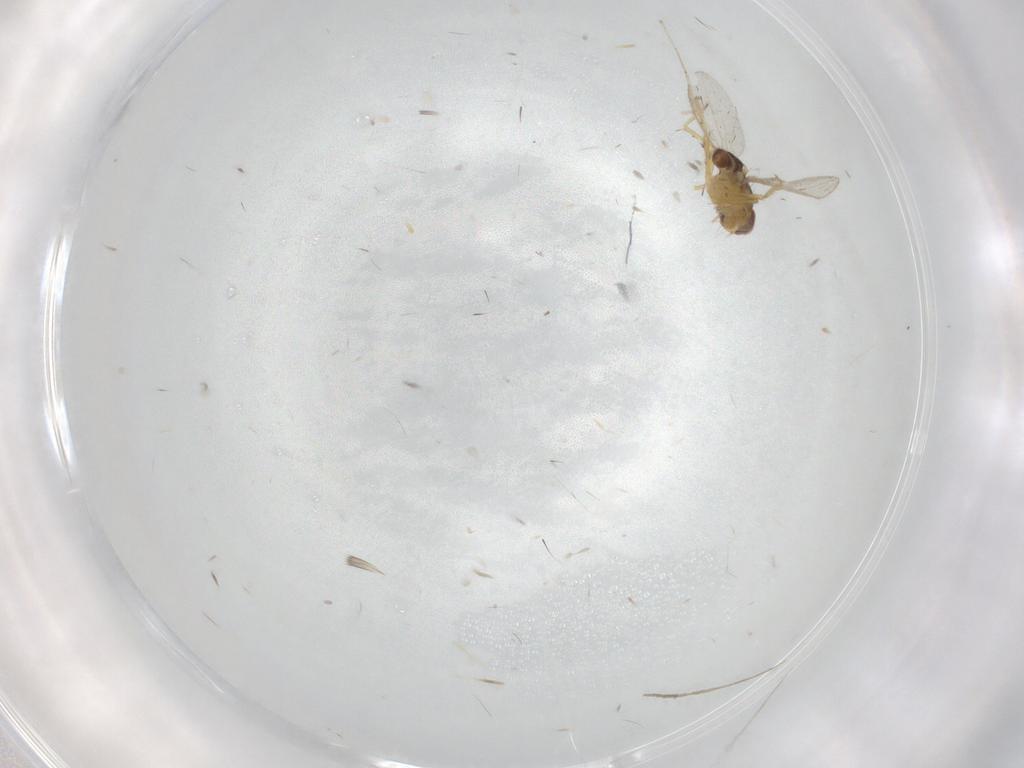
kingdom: Animalia
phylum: Arthropoda
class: Insecta
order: Diptera
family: Periscelididae
